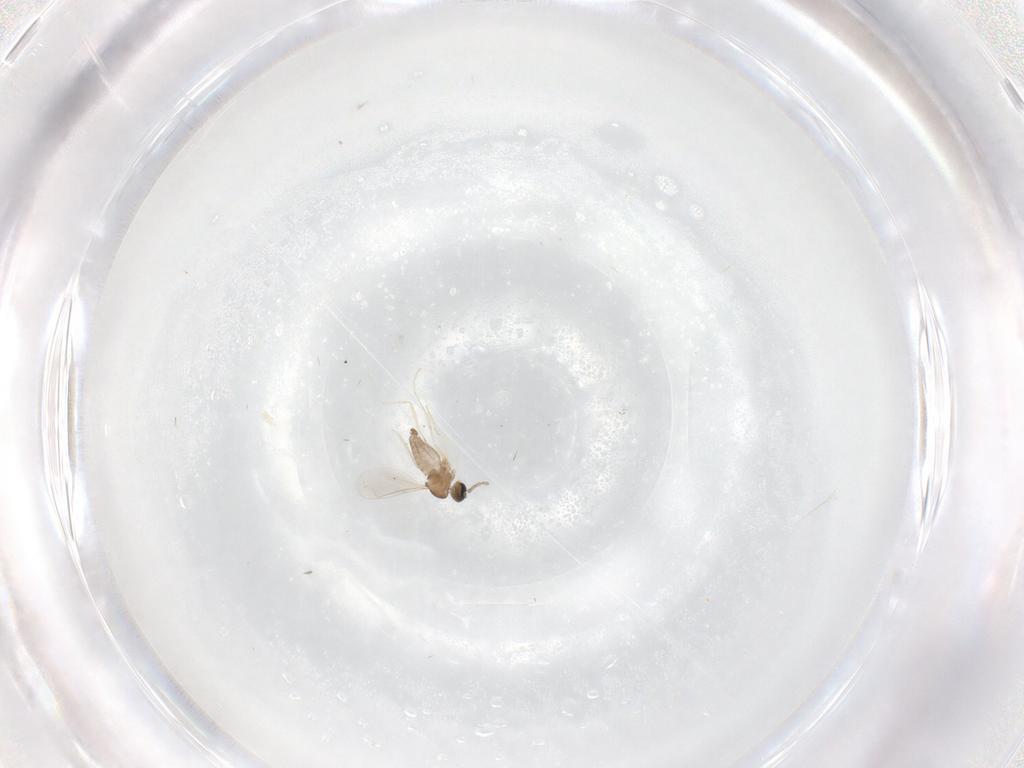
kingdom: Animalia
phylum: Arthropoda
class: Insecta
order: Diptera
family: Cecidomyiidae
